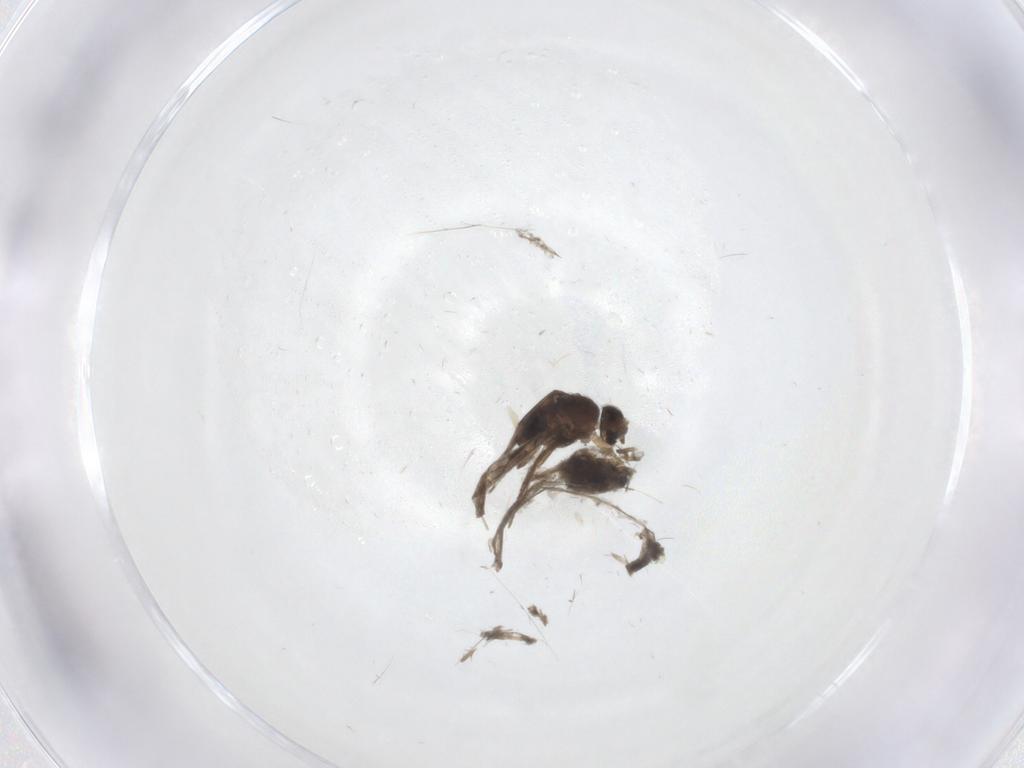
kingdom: Animalia
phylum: Arthropoda
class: Insecta
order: Diptera
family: Chironomidae
